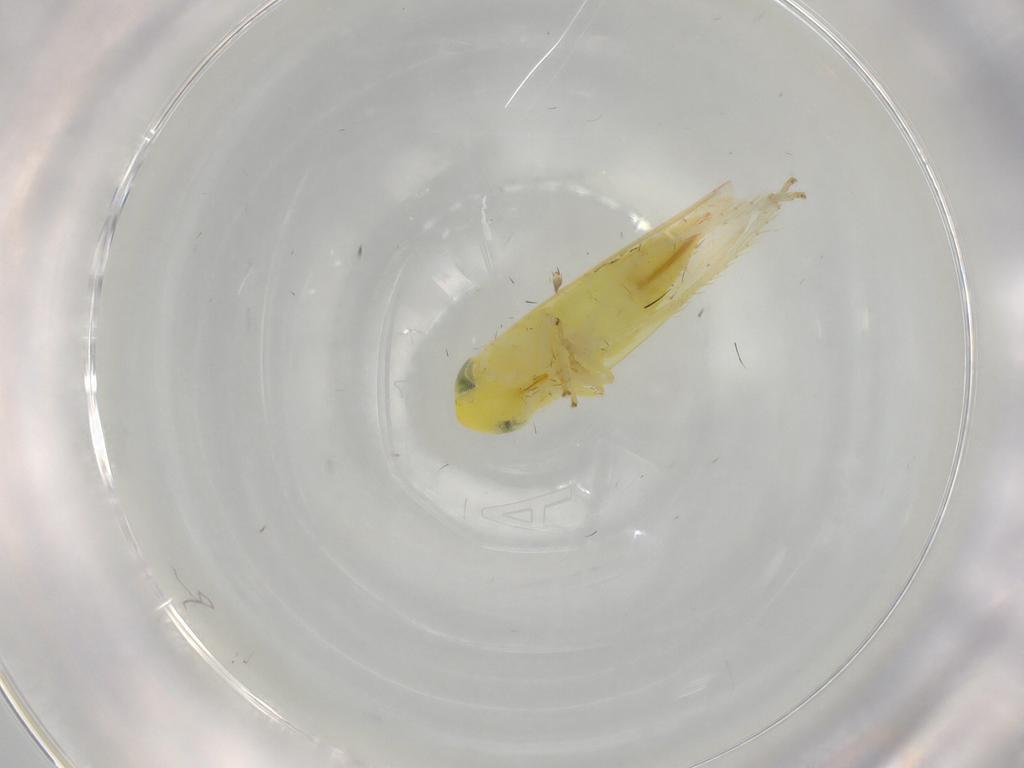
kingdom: Animalia
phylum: Arthropoda
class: Insecta
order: Hemiptera
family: Cicadellidae
